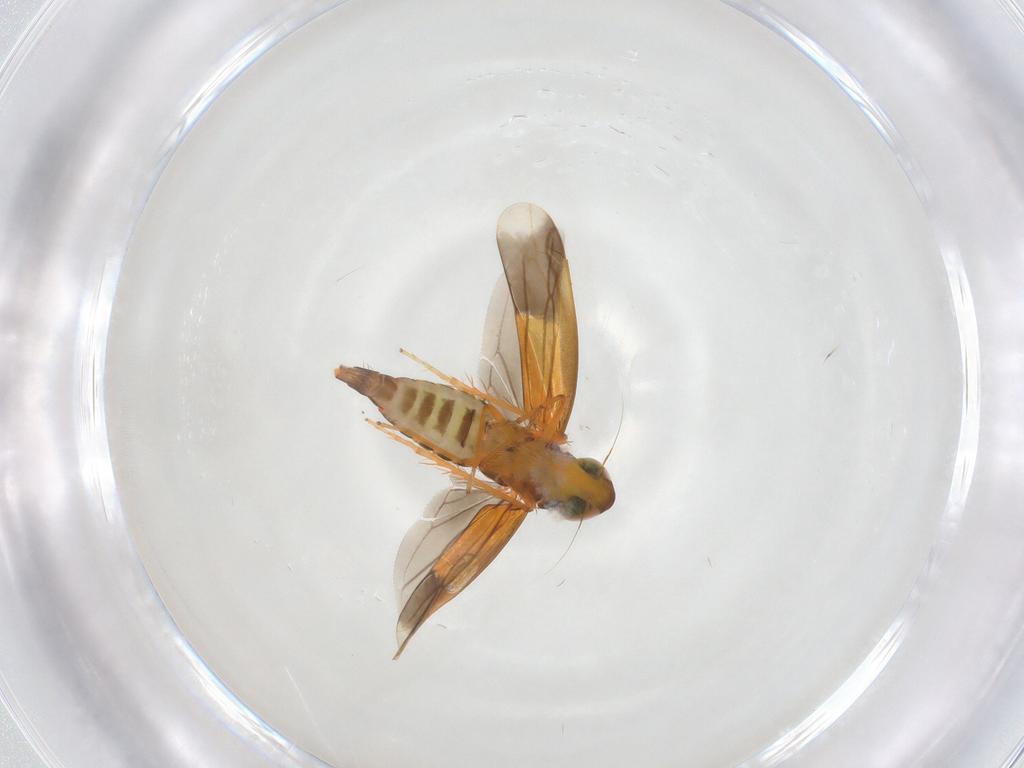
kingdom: Animalia
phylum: Arthropoda
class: Insecta
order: Hemiptera
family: Cicadellidae
